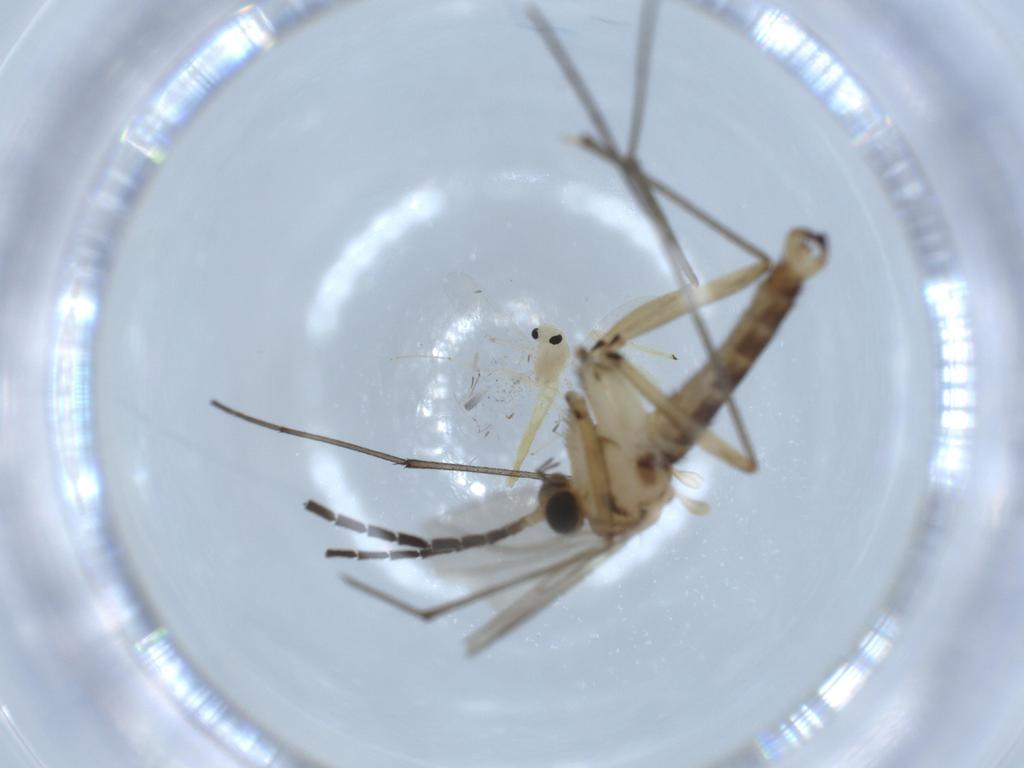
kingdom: Animalia
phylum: Arthropoda
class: Insecta
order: Diptera
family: Sciaridae
